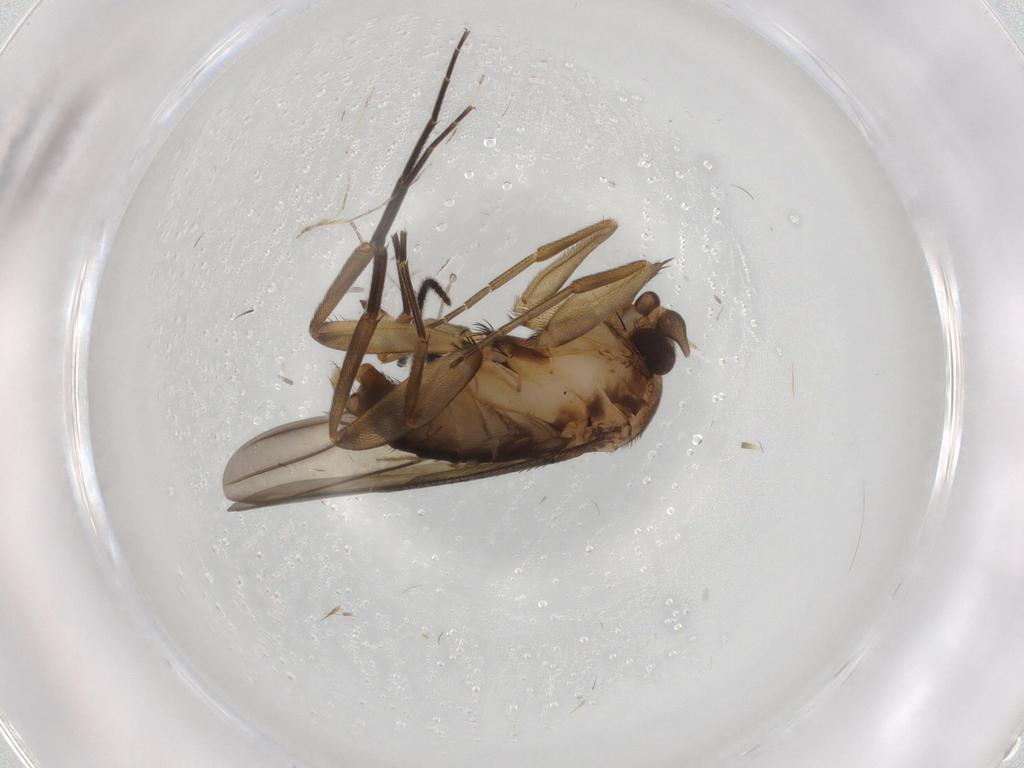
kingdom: Animalia
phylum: Arthropoda
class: Insecta
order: Diptera
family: Phoridae
